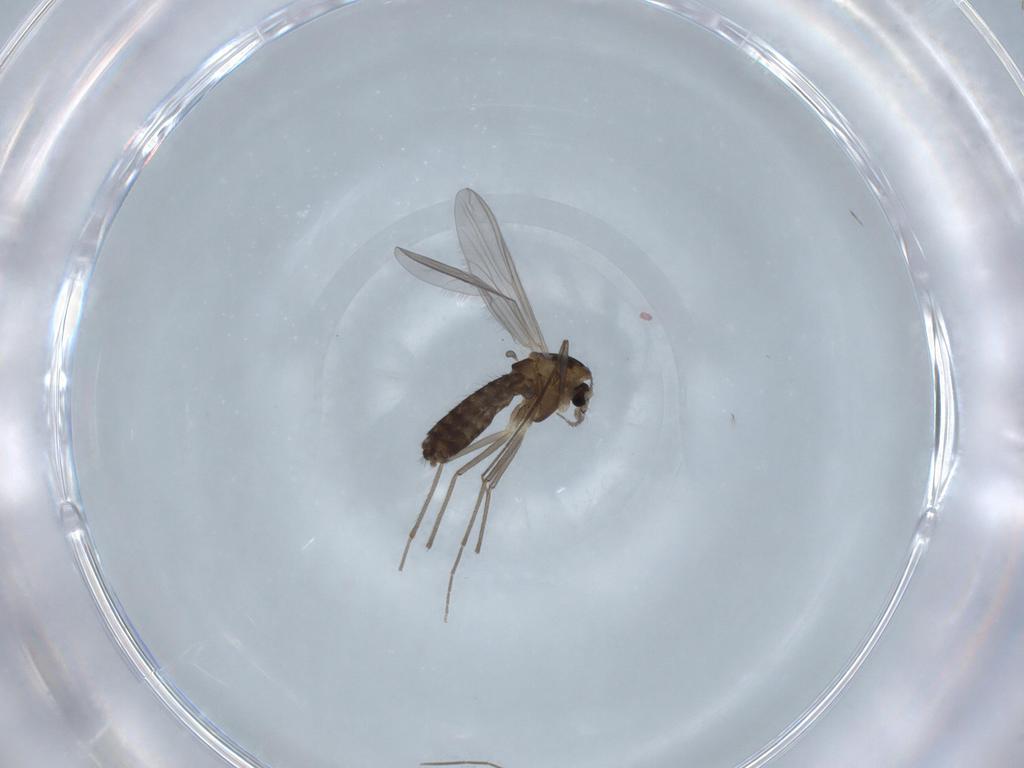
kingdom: Animalia
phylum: Arthropoda
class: Insecta
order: Diptera
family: Chironomidae
